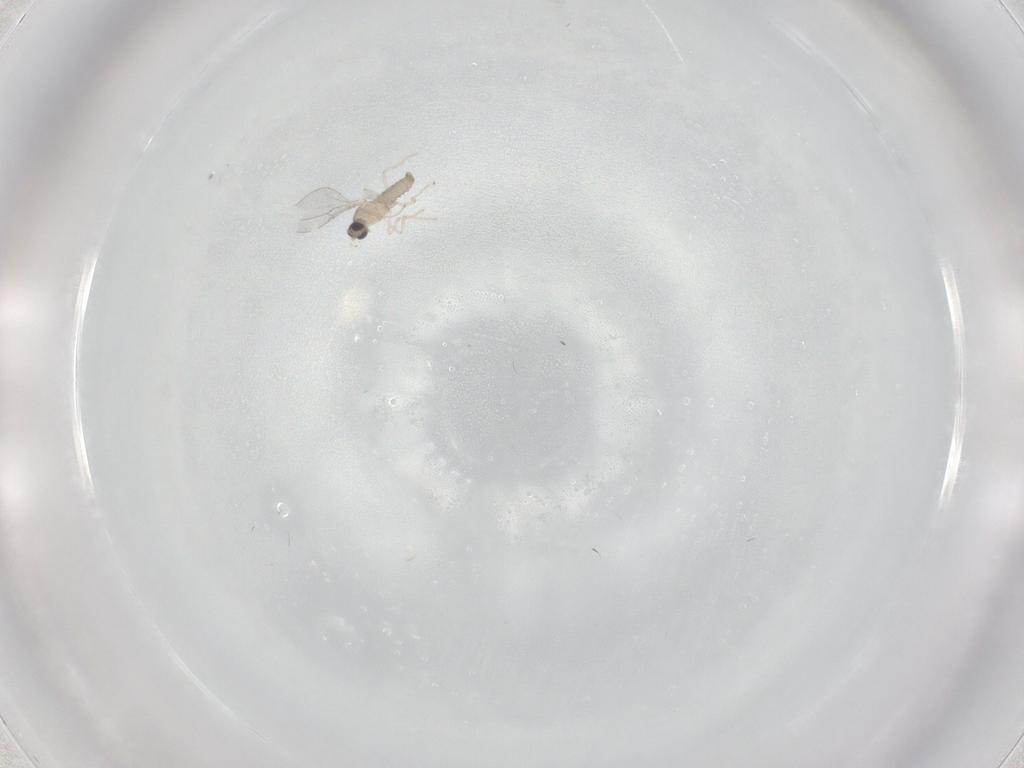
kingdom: Animalia
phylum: Arthropoda
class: Insecta
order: Diptera
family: Cecidomyiidae
